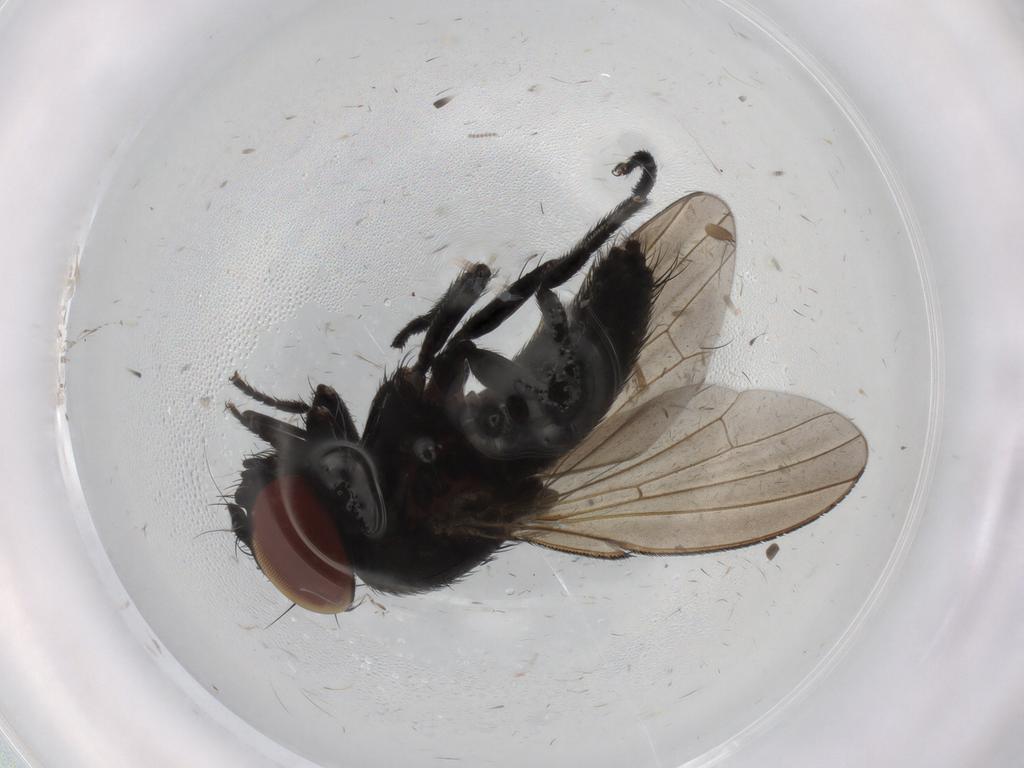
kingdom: Animalia
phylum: Arthropoda
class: Insecta
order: Diptera
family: Milichiidae
